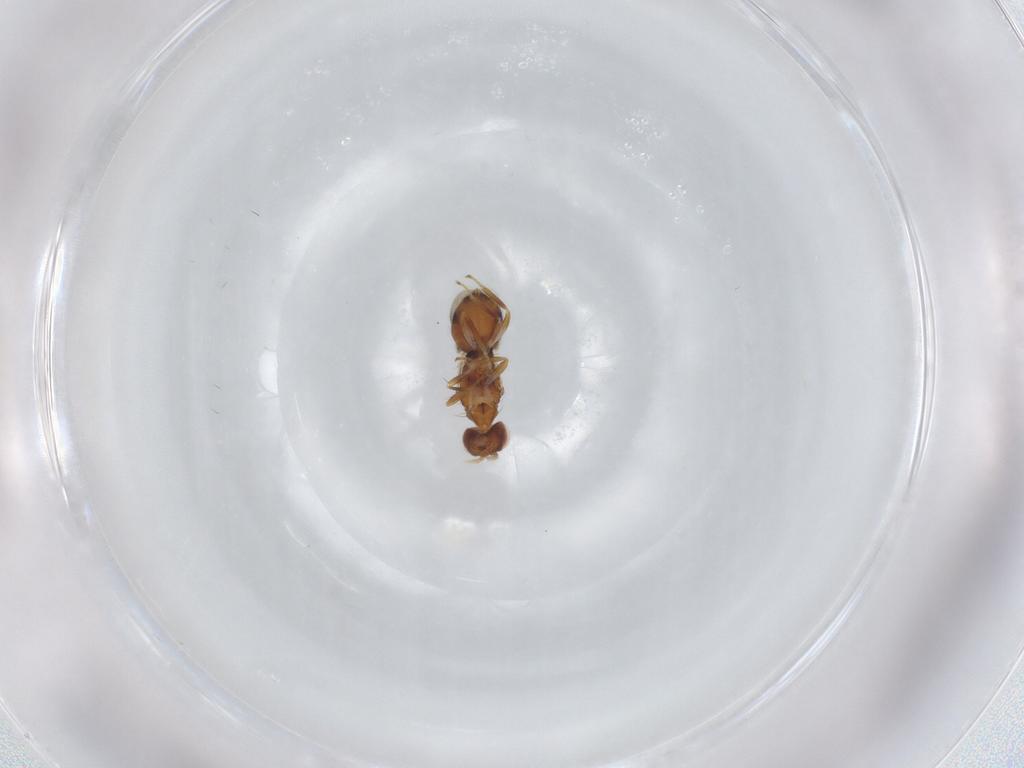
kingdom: Animalia
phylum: Arthropoda
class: Insecta
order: Hymenoptera
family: Eulophidae
